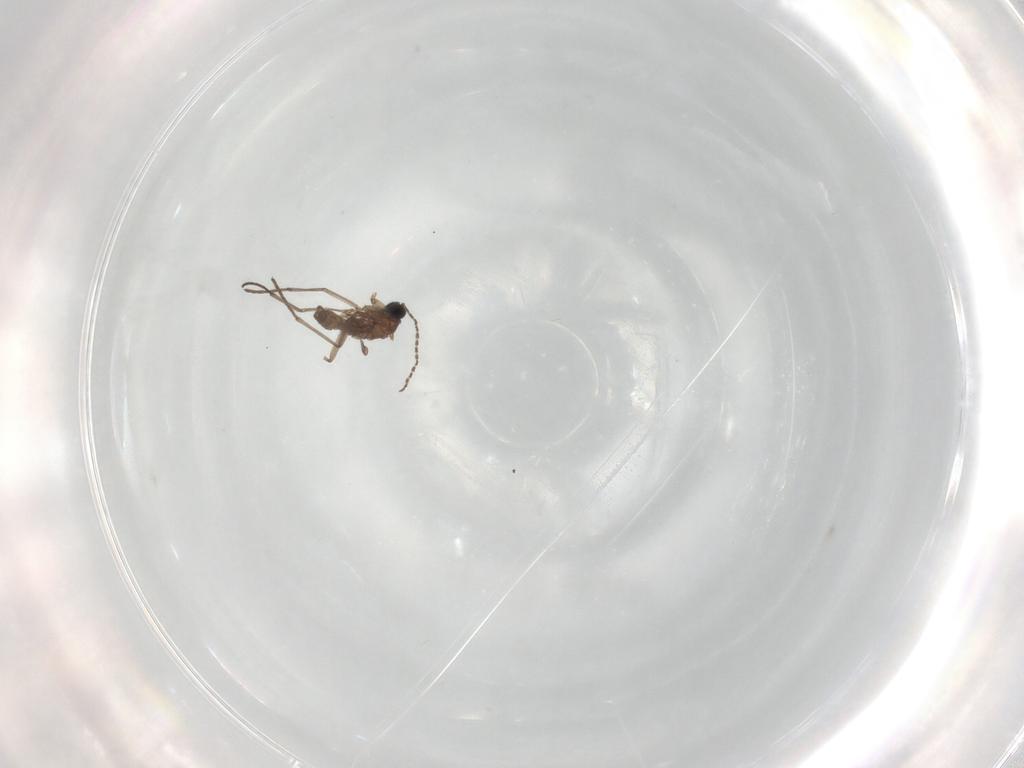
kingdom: Animalia
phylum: Arthropoda
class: Insecta
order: Diptera
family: Sciaridae
